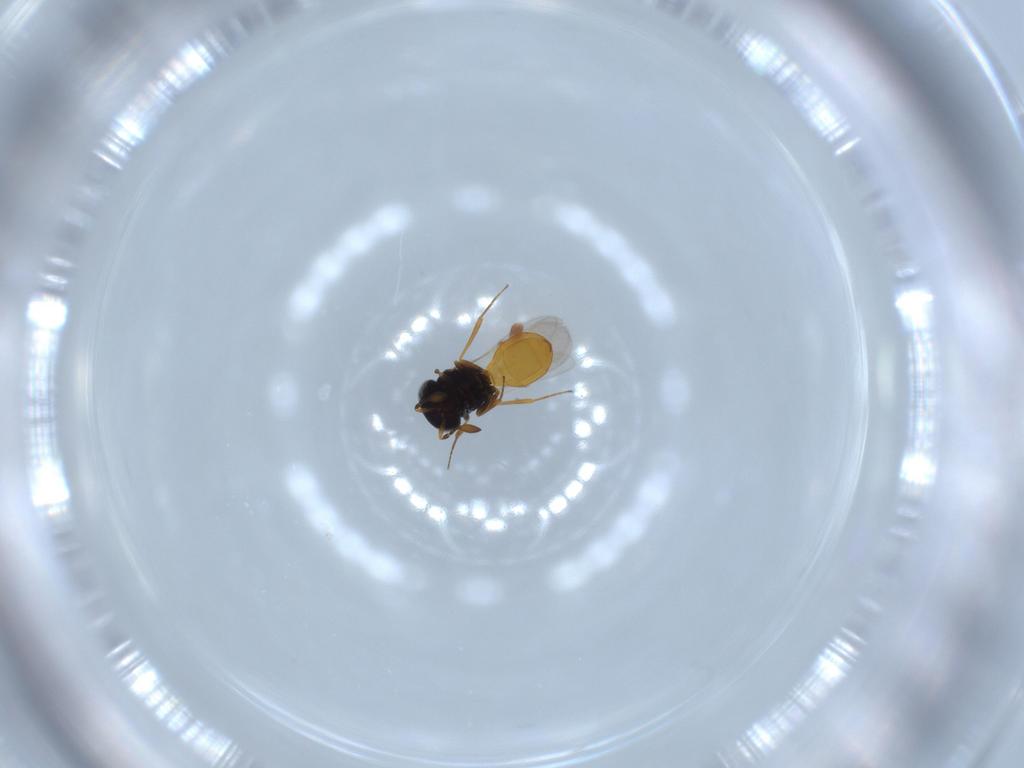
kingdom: Animalia
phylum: Arthropoda
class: Insecta
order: Hymenoptera
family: Scelionidae
